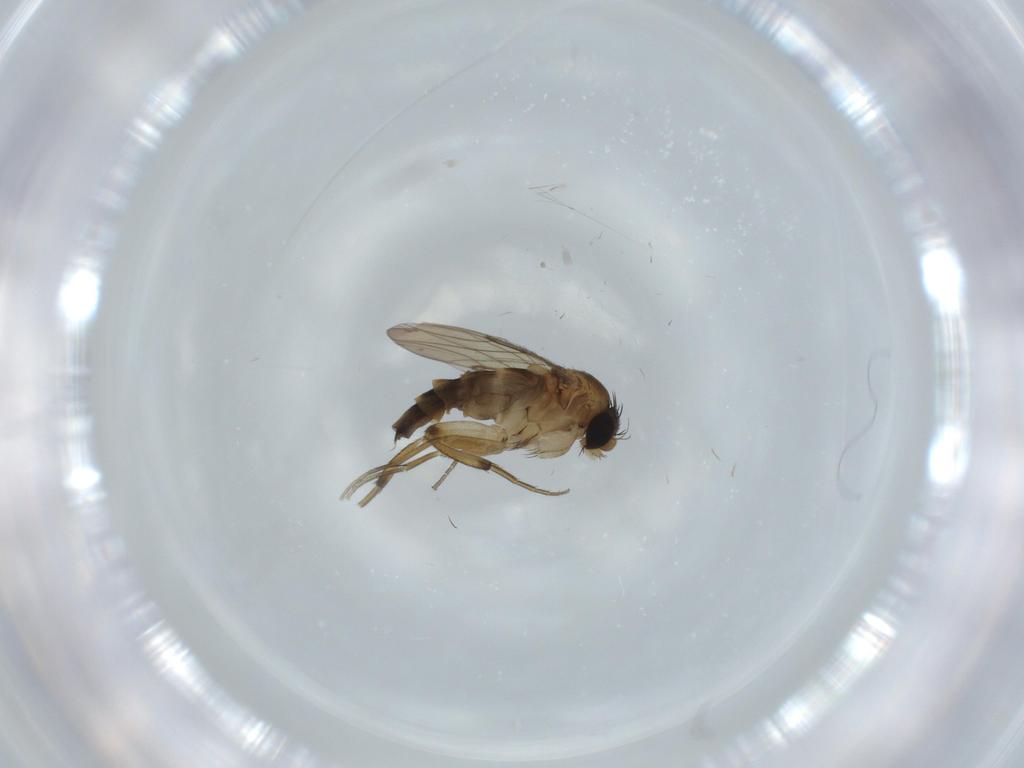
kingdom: Animalia
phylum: Arthropoda
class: Insecta
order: Diptera
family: Phoridae
